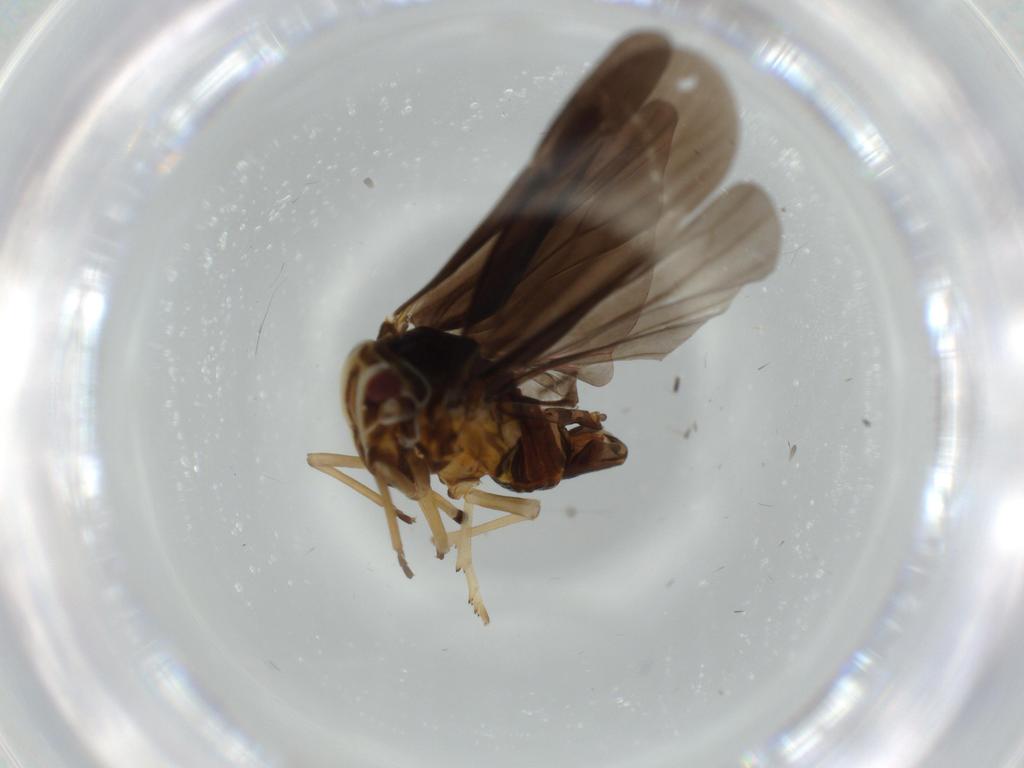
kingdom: Animalia
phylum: Arthropoda
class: Insecta
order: Hemiptera
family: Derbidae
